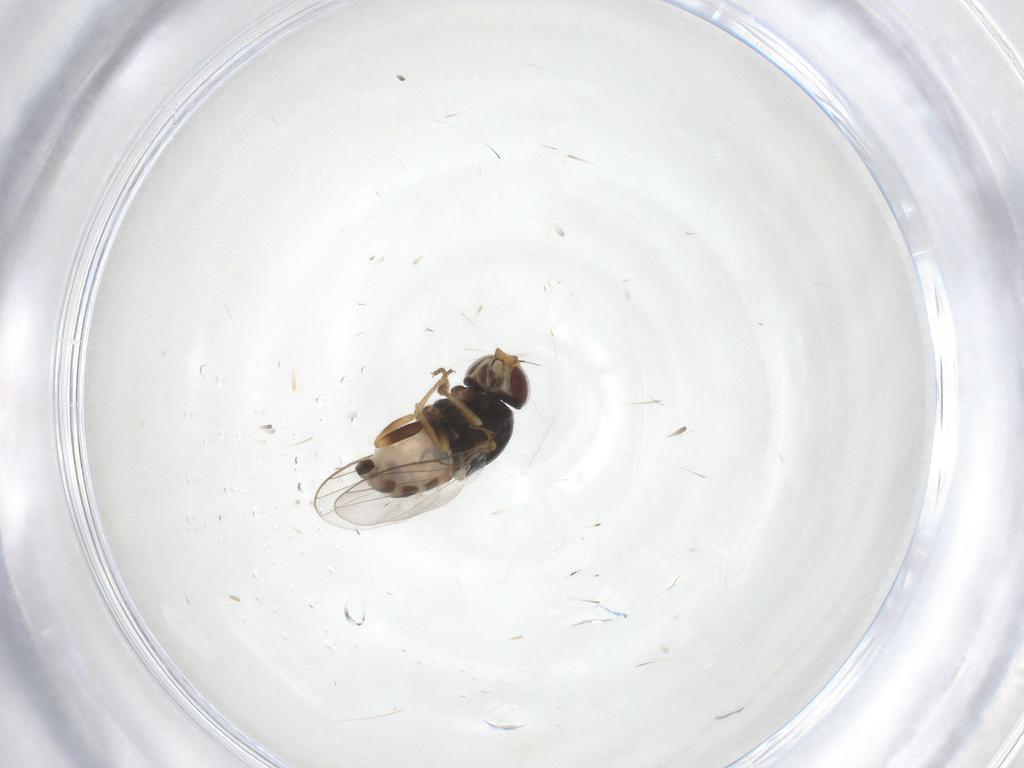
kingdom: Animalia
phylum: Arthropoda
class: Insecta
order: Diptera
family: Chloropidae
